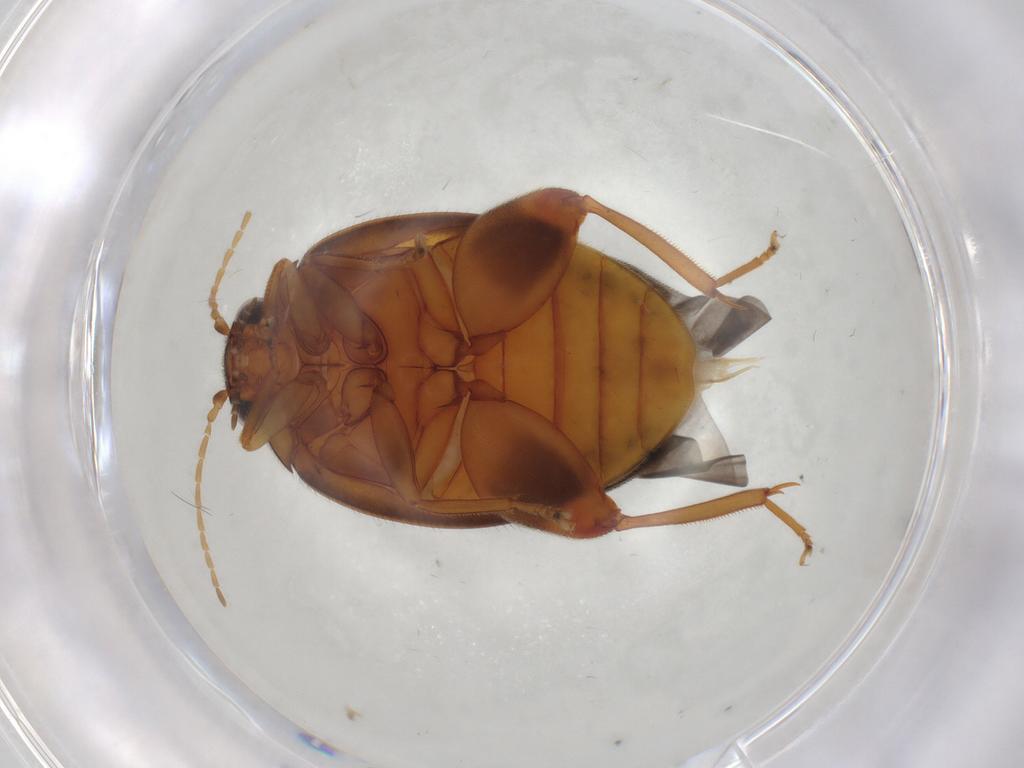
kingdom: Animalia
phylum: Arthropoda
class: Insecta
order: Coleoptera
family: Scirtidae
